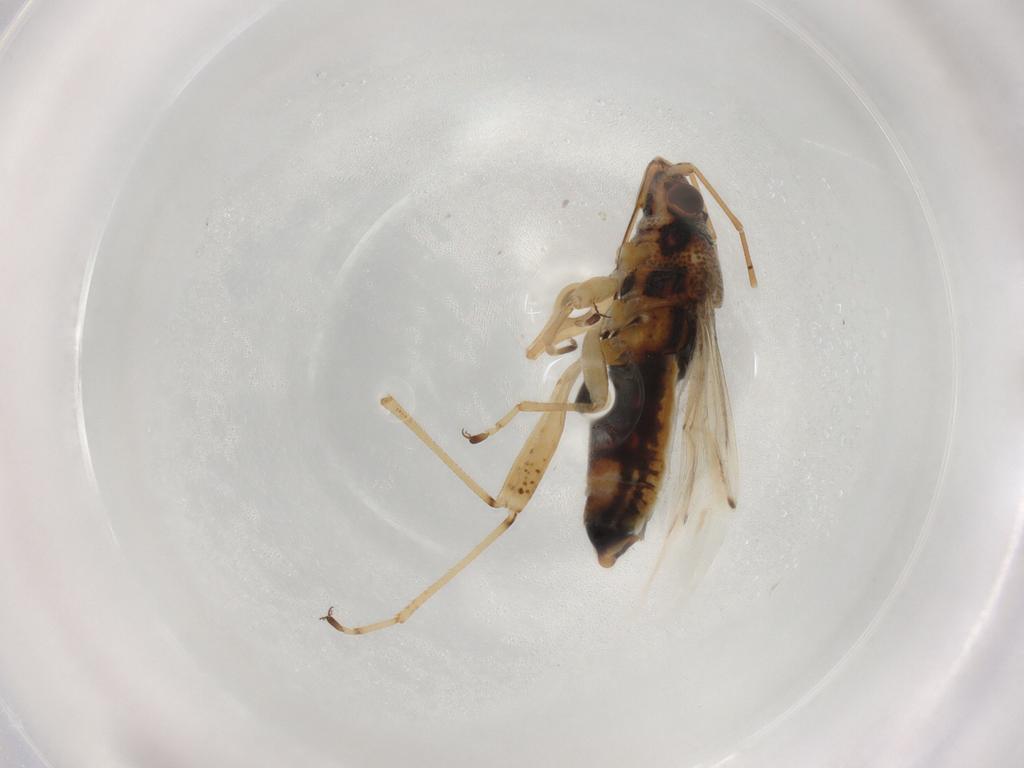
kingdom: Animalia
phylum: Arthropoda
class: Insecta
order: Hemiptera
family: Lygaeidae
